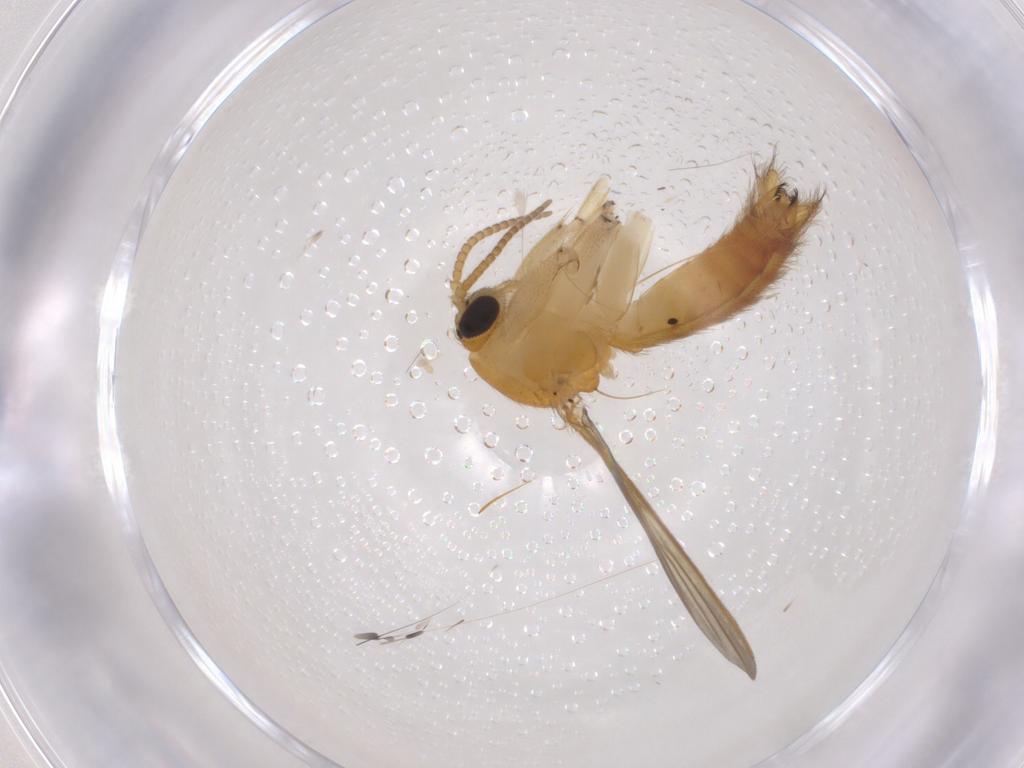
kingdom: Animalia
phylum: Arthropoda
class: Insecta
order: Diptera
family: Mycetophilidae
